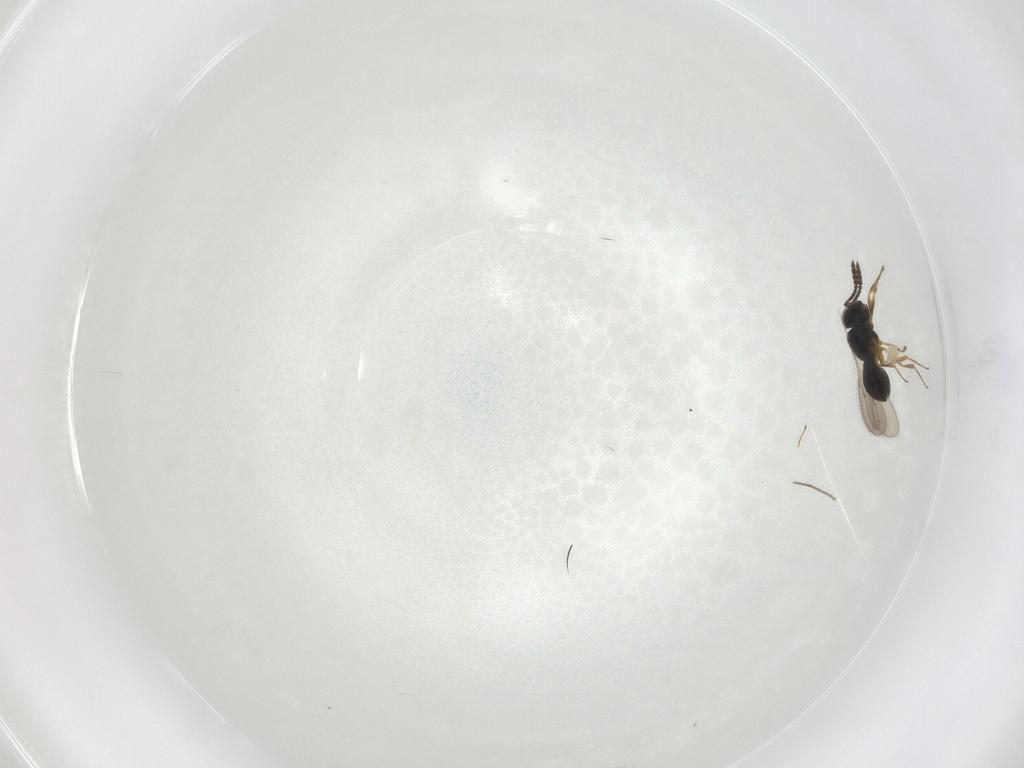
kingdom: Animalia
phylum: Arthropoda
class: Insecta
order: Hymenoptera
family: Scelionidae
